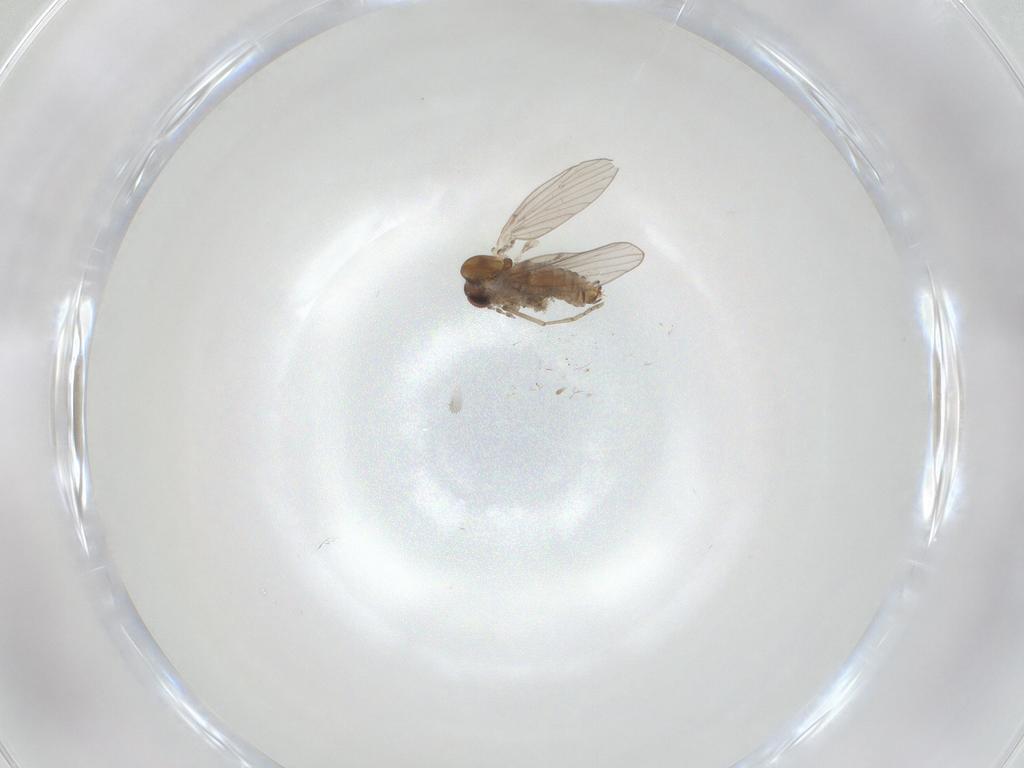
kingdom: Animalia
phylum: Arthropoda
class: Insecta
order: Diptera
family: Psychodidae
